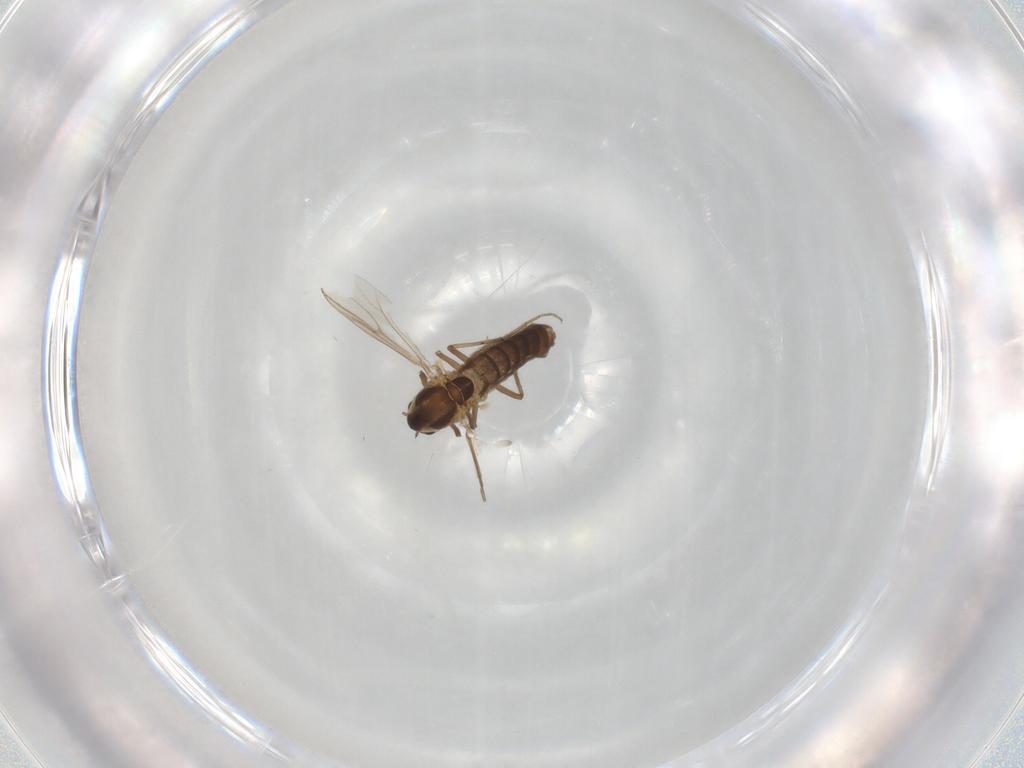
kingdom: Animalia
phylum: Arthropoda
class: Insecta
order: Diptera
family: Chironomidae
